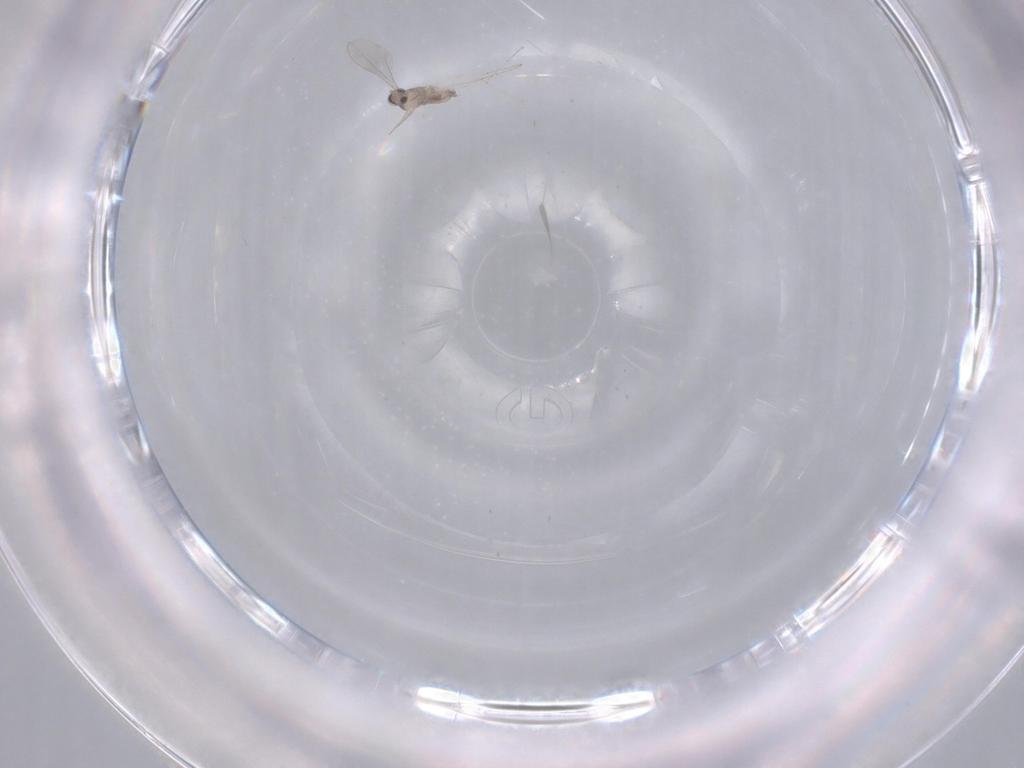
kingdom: Animalia
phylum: Arthropoda
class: Insecta
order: Diptera
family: Cecidomyiidae
